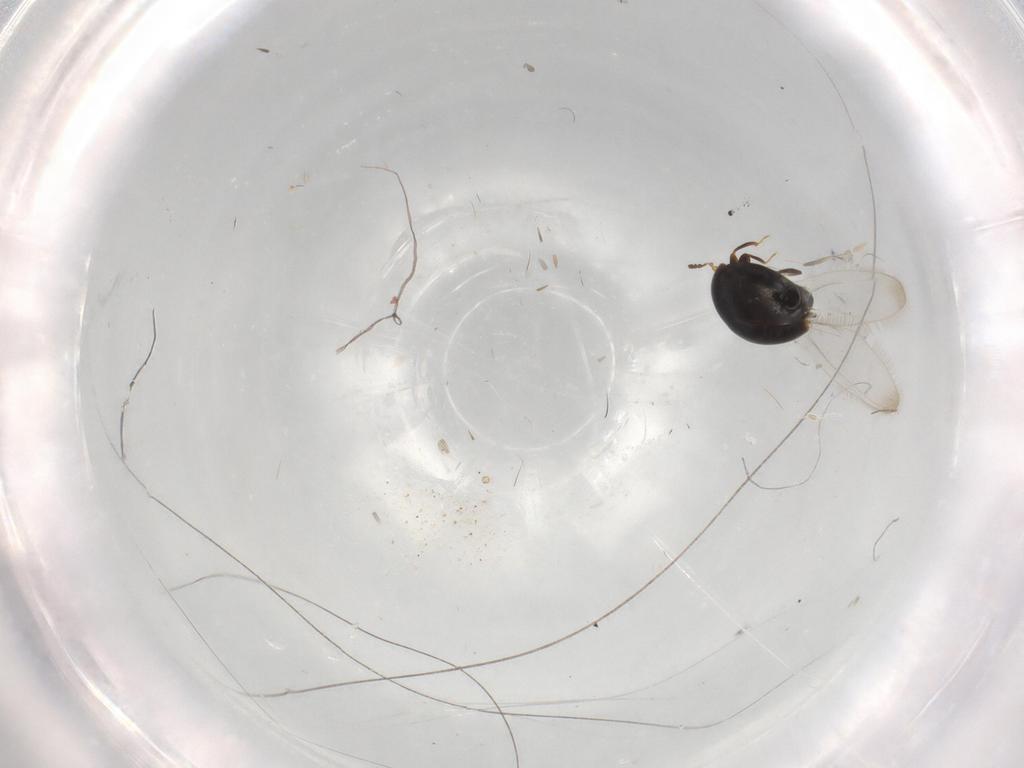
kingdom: Animalia
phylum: Arthropoda
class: Insecta
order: Coleoptera
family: Corylophidae
